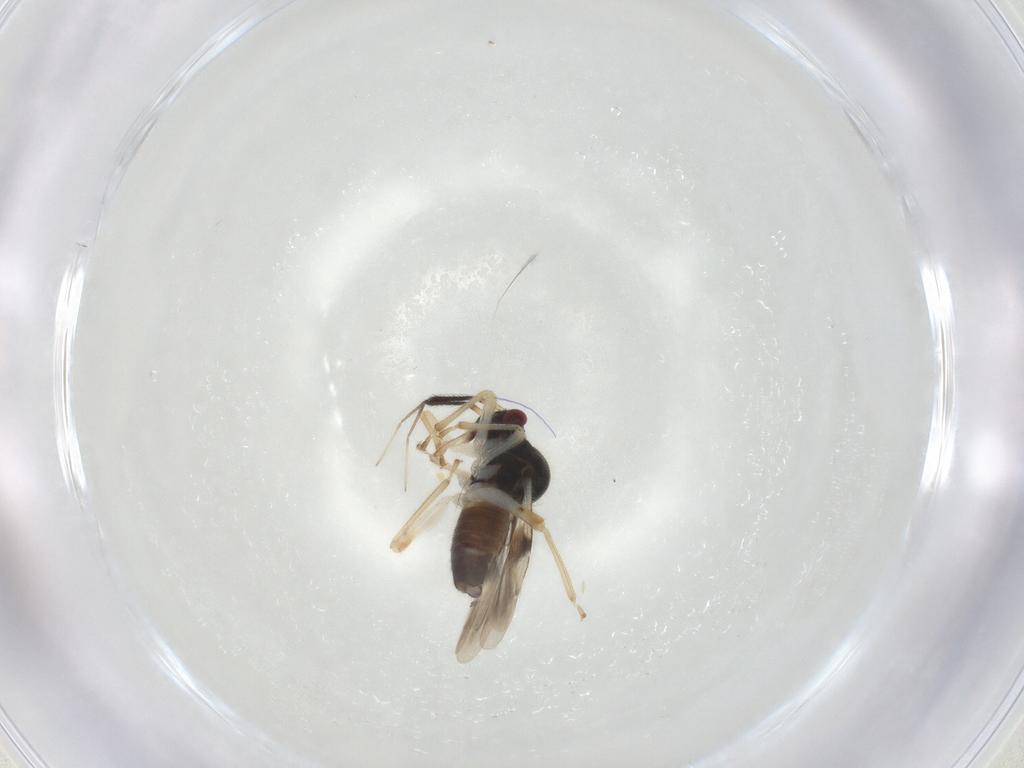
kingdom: Animalia
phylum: Arthropoda
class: Insecta
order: Hemiptera
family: Miridae
